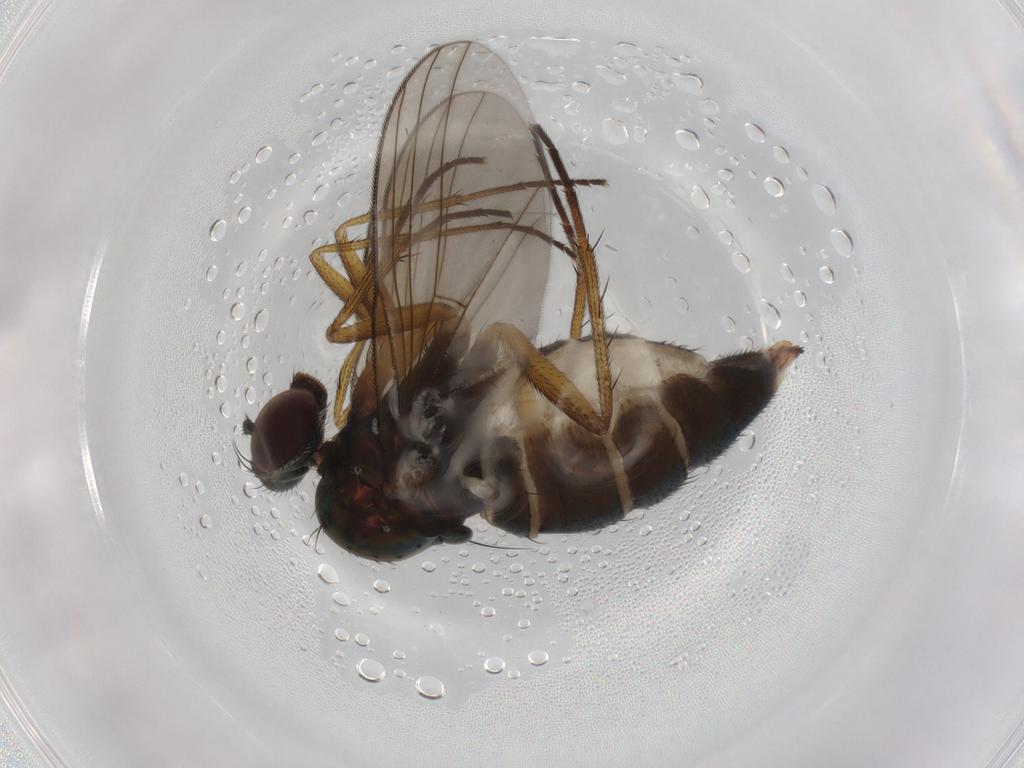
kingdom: Animalia
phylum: Arthropoda
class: Insecta
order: Diptera
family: Dolichopodidae
